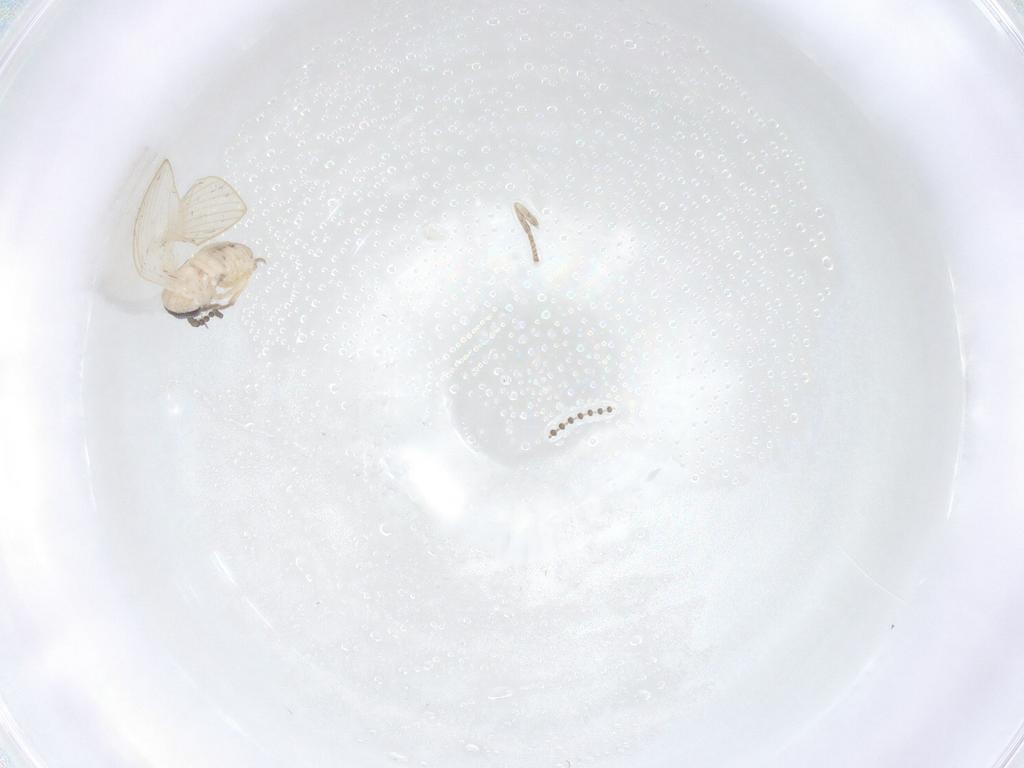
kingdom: Animalia
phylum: Arthropoda
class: Insecta
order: Diptera
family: Psychodidae
